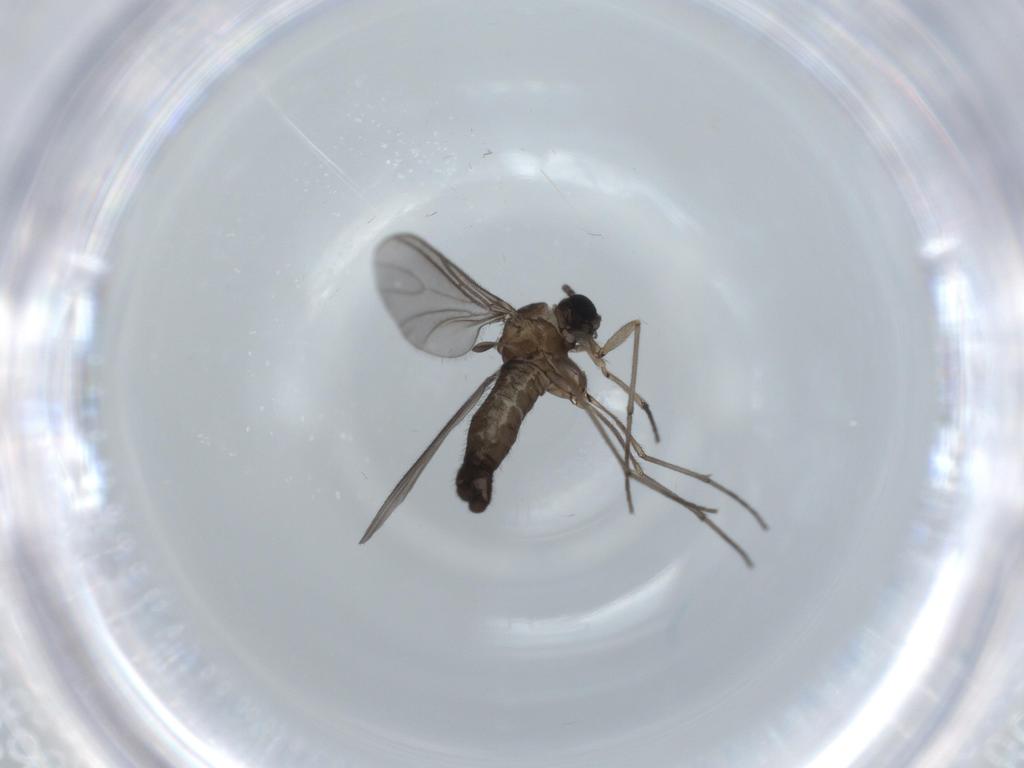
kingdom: Animalia
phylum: Arthropoda
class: Insecta
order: Diptera
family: Sciaridae
